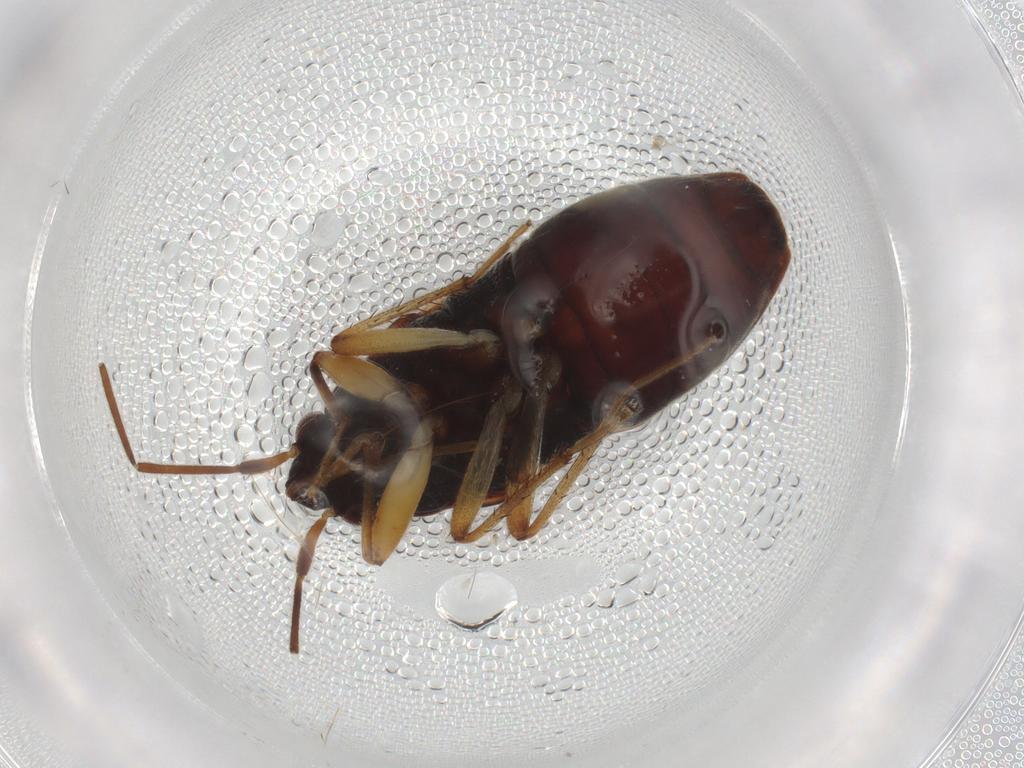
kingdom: Animalia
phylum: Arthropoda
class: Insecta
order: Hemiptera
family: Rhyparochromidae
